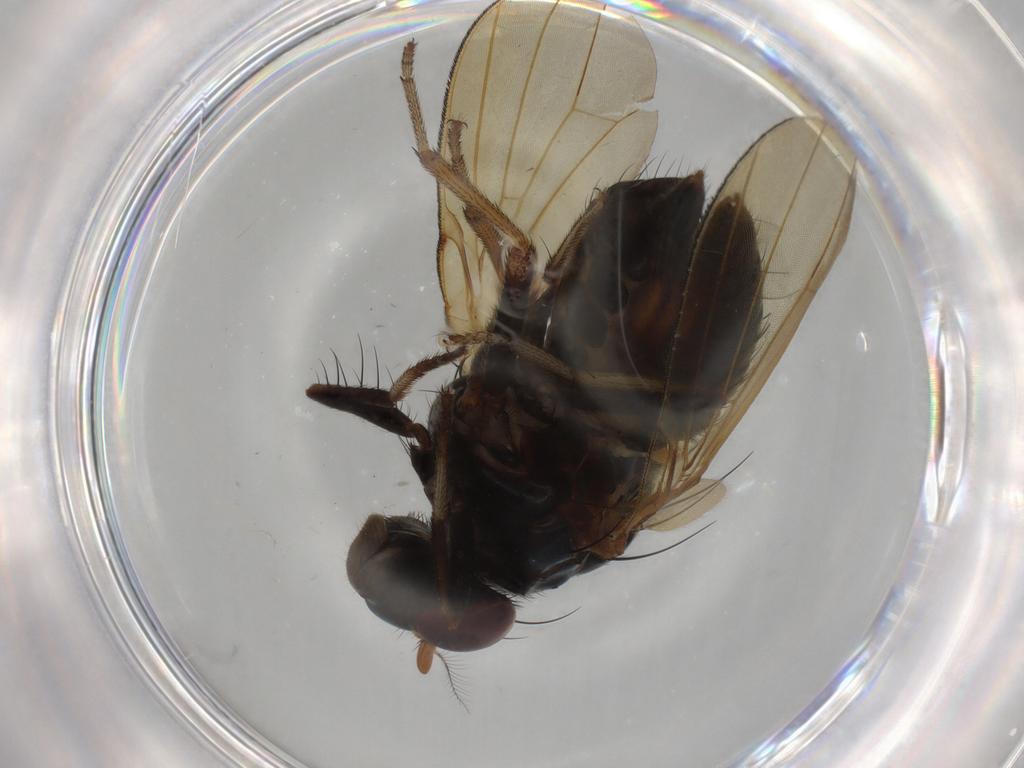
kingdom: Animalia
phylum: Arthropoda
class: Insecta
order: Diptera
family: Lauxaniidae
